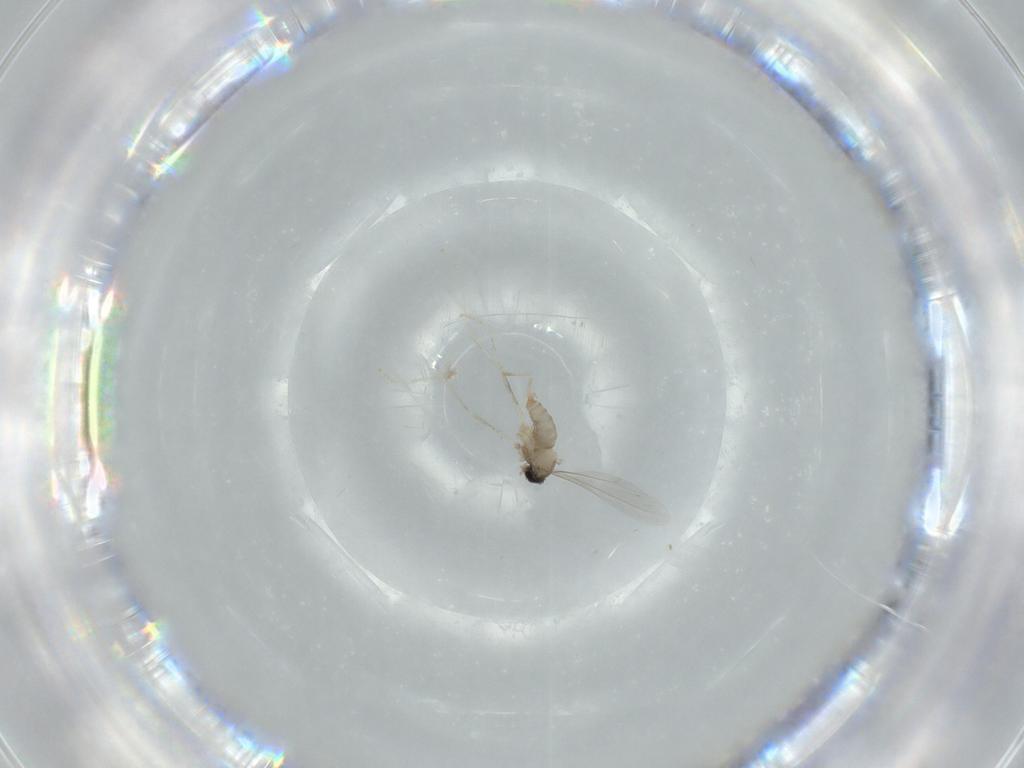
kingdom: Animalia
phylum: Arthropoda
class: Insecta
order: Diptera
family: Cecidomyiidae
